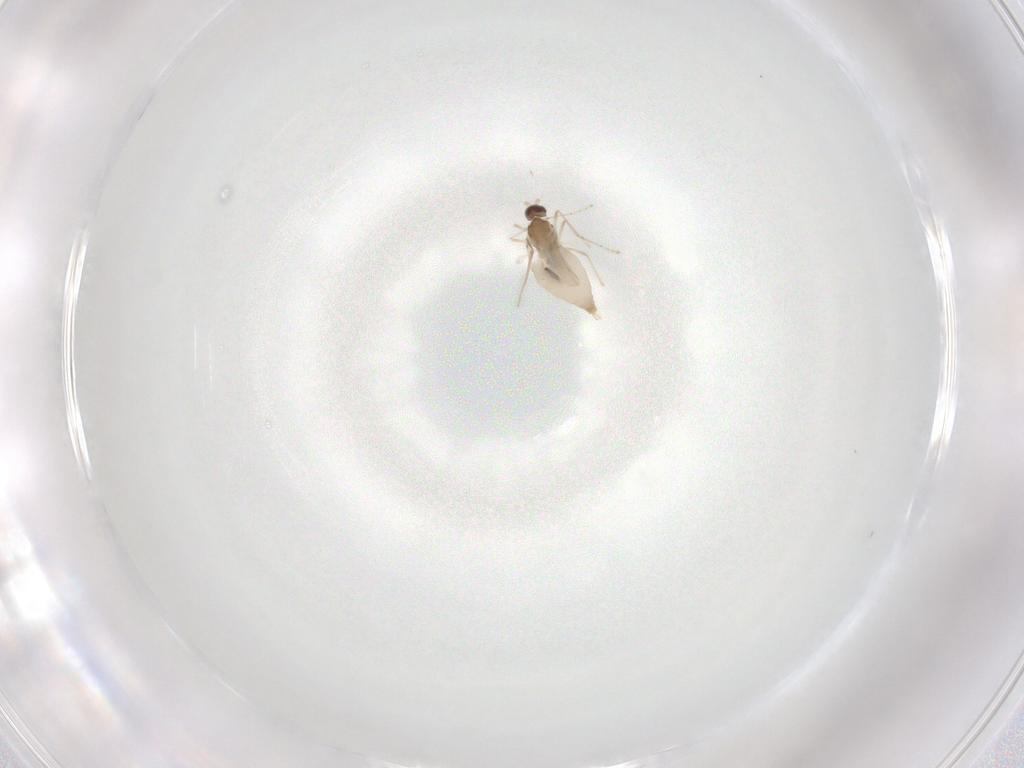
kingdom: Animalia
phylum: Arthropoda
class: Insecta
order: Diptera
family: Cecidomyiidae
